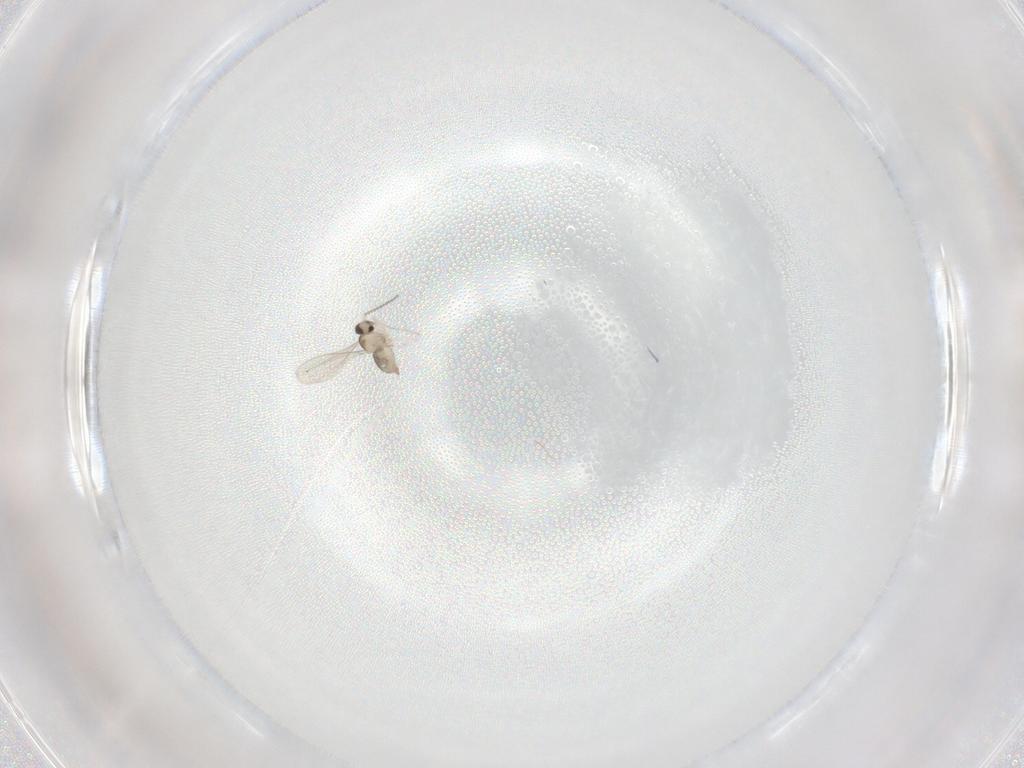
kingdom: Animalia
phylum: Arthropoda
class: Insecta
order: Diptera
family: Cecidomyiidae
